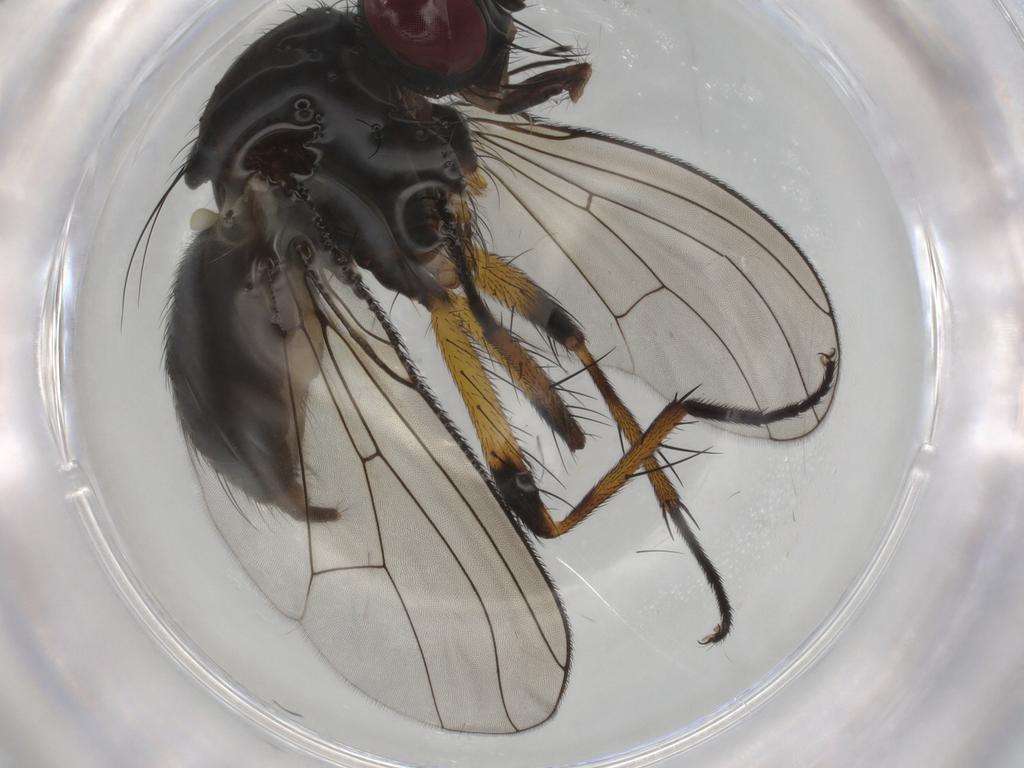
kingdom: Animalia
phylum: Arthropoda
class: Insecta
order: Diptera
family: Muscidae
